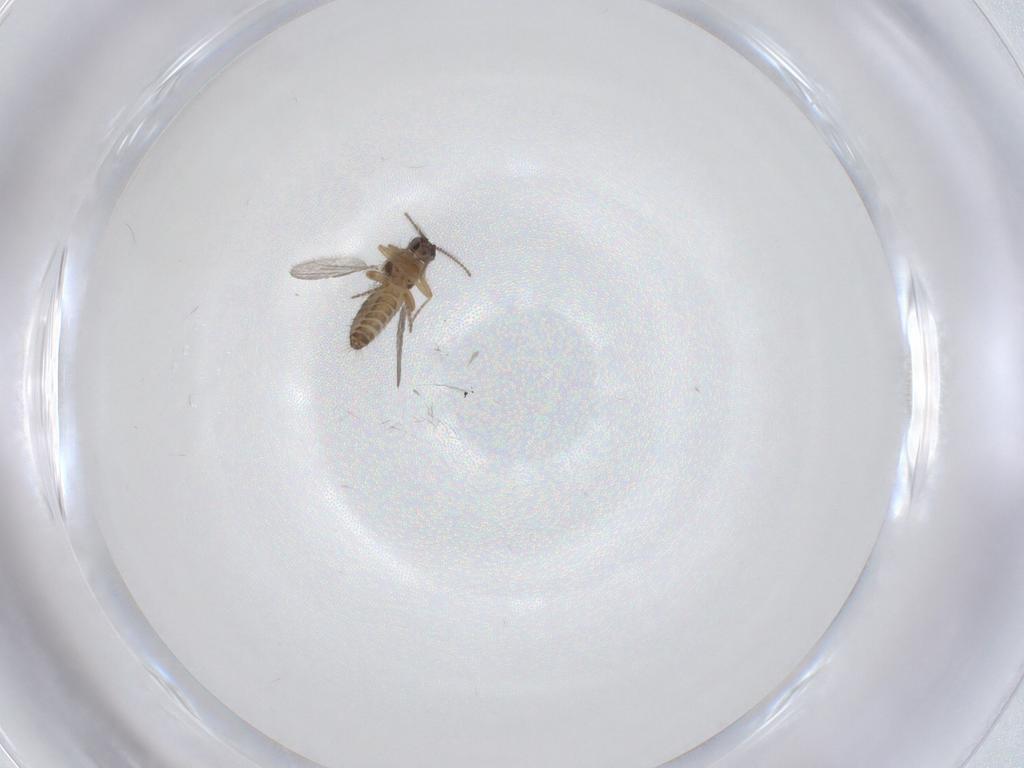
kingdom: Animalia
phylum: Arthropoda
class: Insecta
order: Diptera
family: Ceratopogonidae
